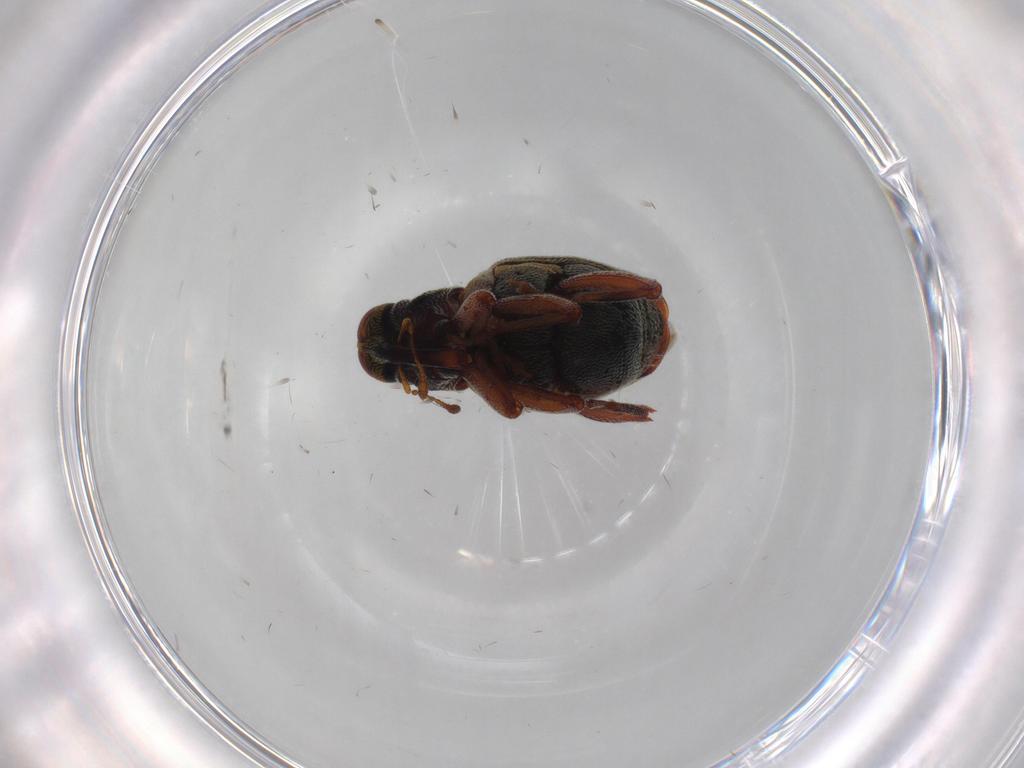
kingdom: Animalia
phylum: Arthropoda
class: Insecta
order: Coleoptera
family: Curculionidae
